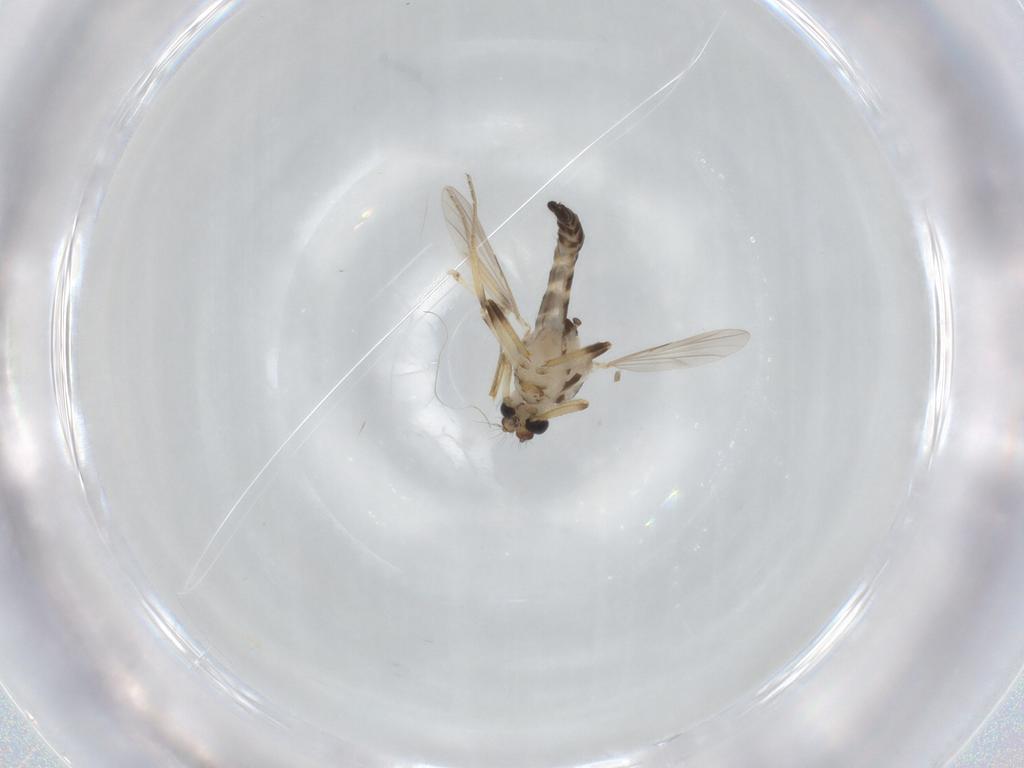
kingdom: Animalia
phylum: Arthropoda
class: Insecta
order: Diptera
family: Ceratopogonidae
